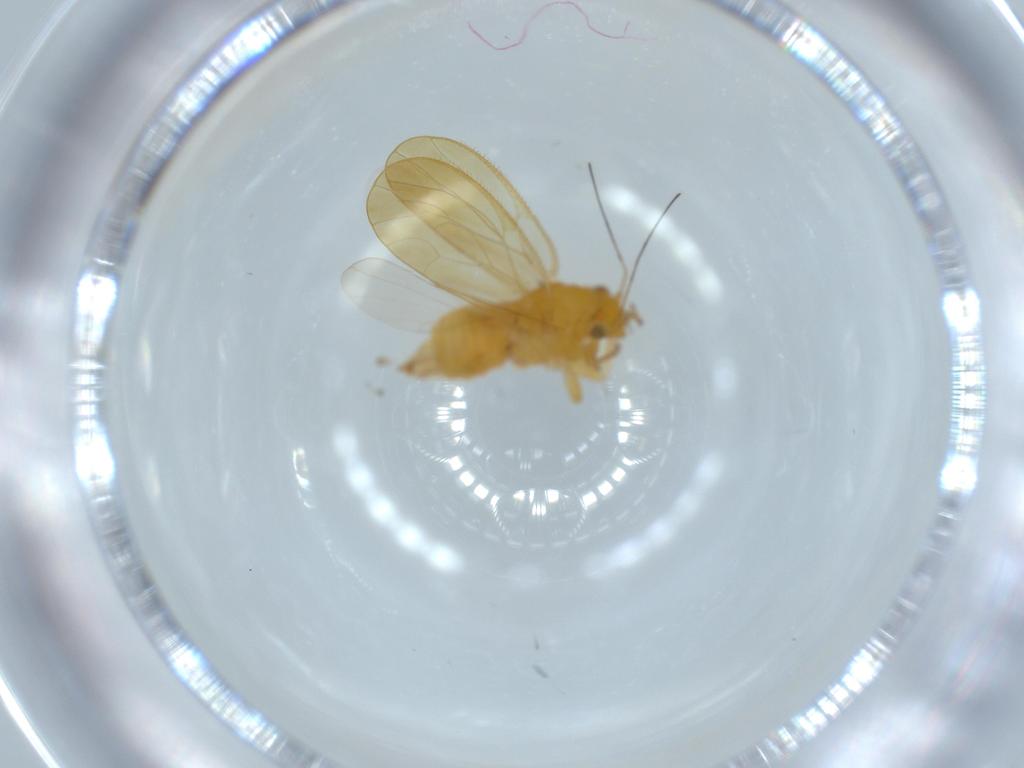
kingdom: Animalia
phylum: Arthropoda
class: Insecta
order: Hemiptera
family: Psyllidae
